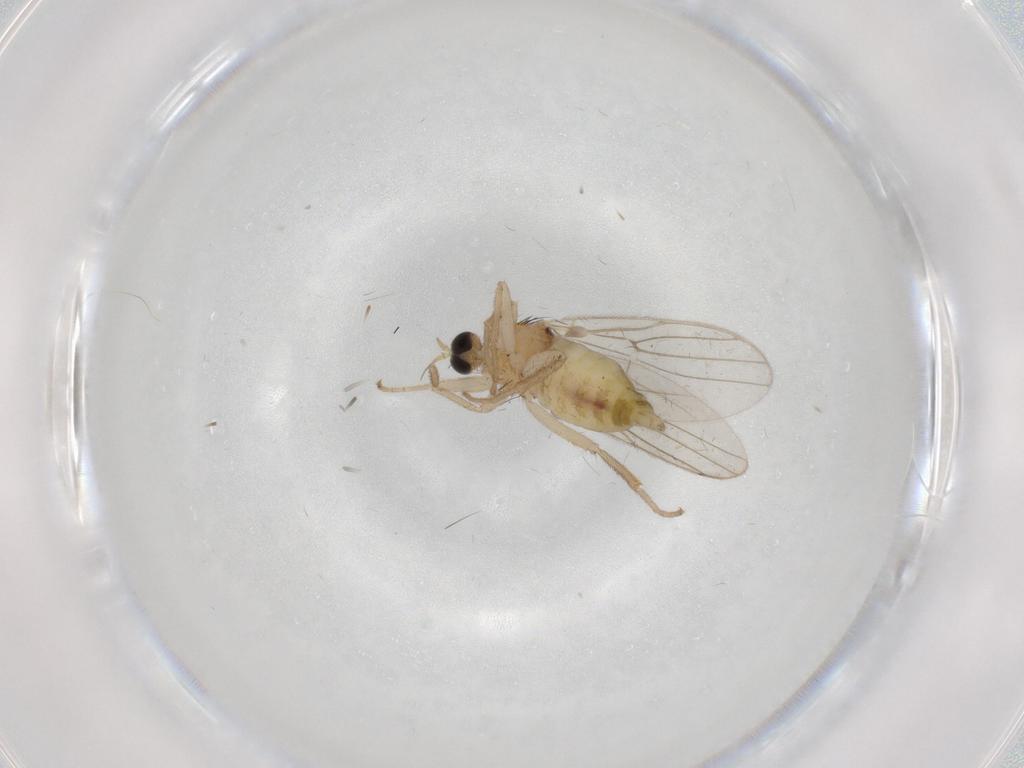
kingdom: Animalia
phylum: Arthropoda
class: Insecta
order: Diptera
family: Hybotidae
